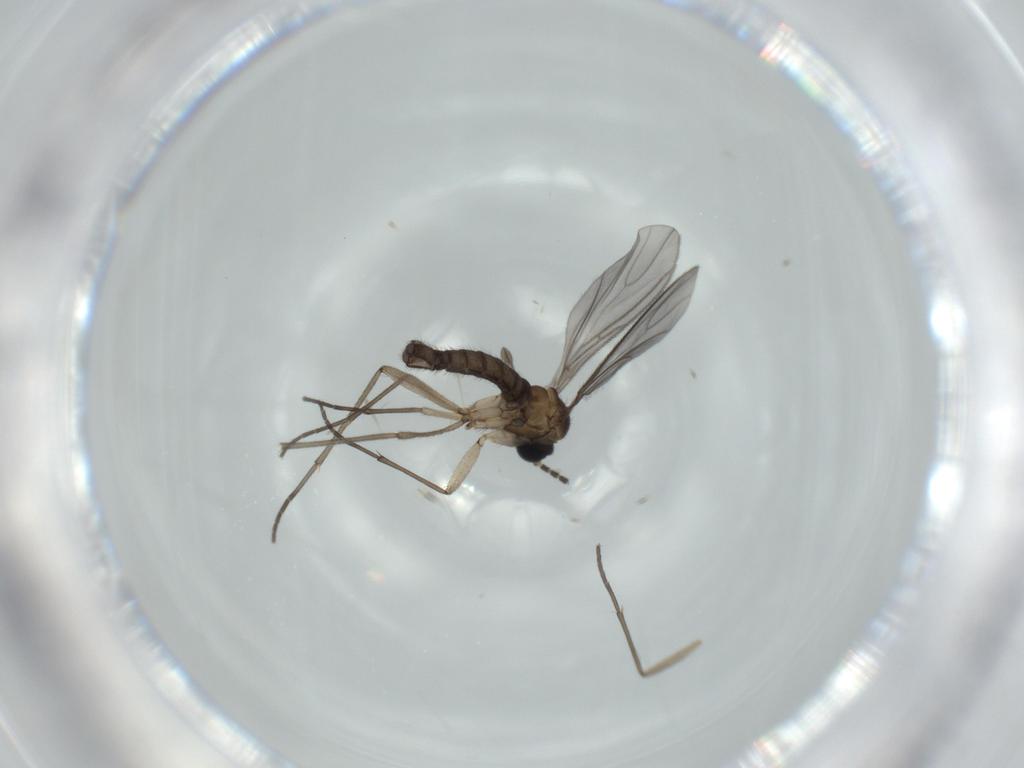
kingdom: Animalia
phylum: Arthropoda
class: Insecta
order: Diptera
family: Sciaridae
